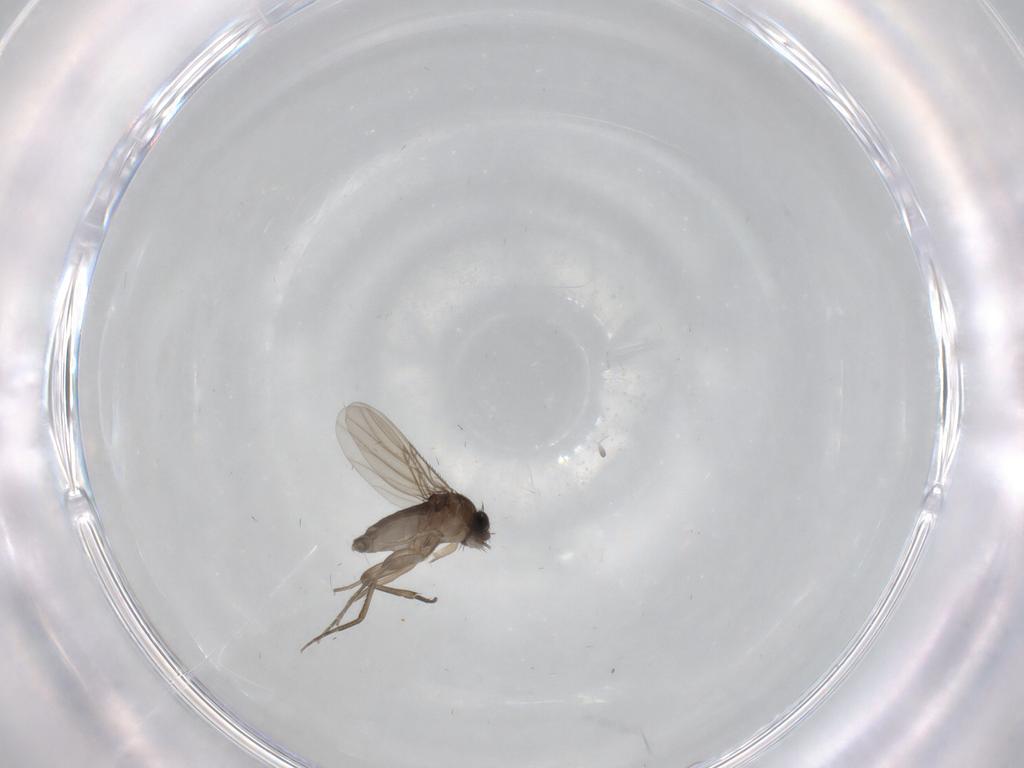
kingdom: Animalia
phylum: Arthropoda
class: Insecta
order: Diptera
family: Phoridae
